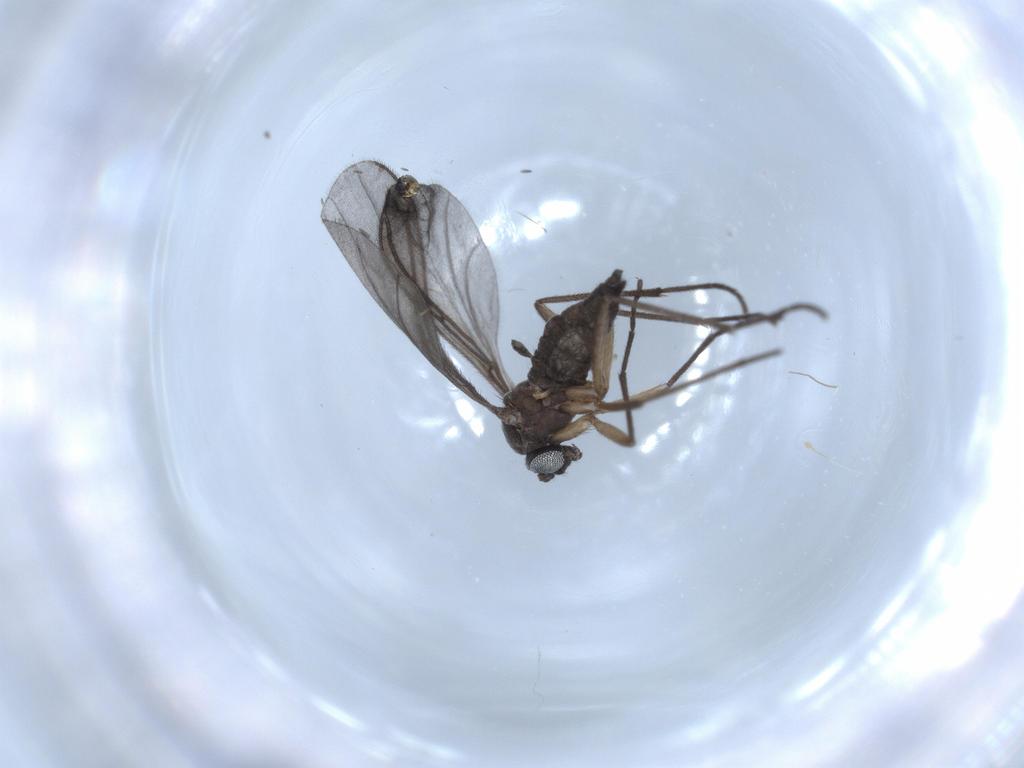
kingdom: Animalia
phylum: Arthropoda
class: Insecta
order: Diptera
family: Sciaridae
